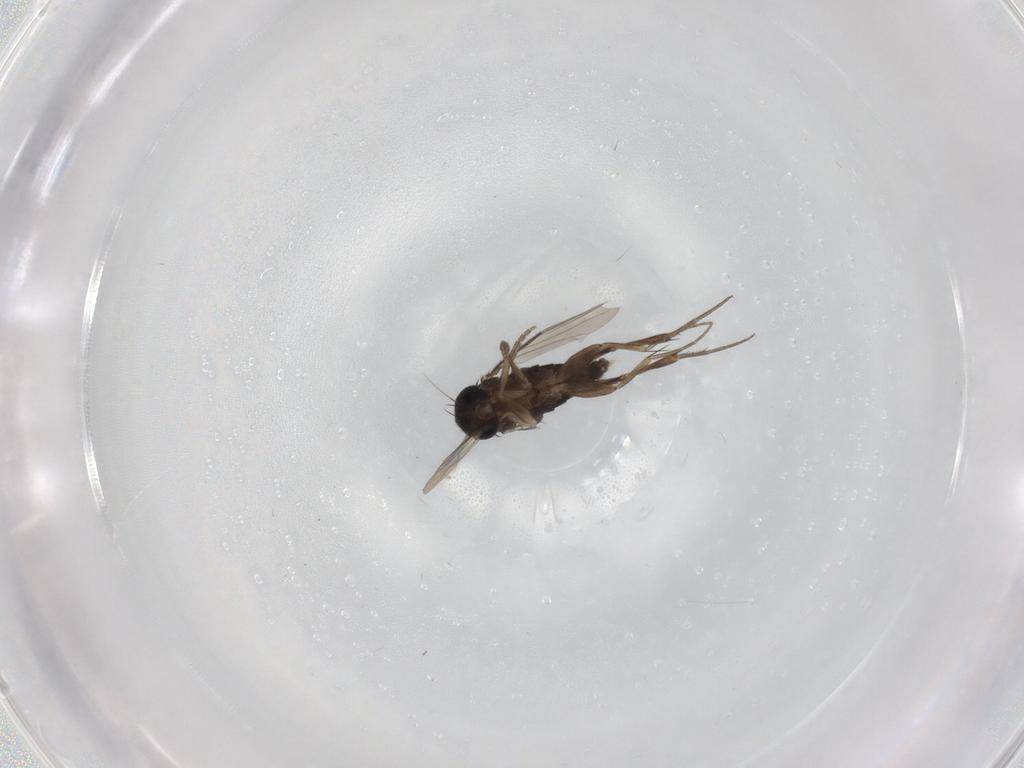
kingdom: Animalia
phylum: Arthropoda
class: Insecta
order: Diptera
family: Phoridae
